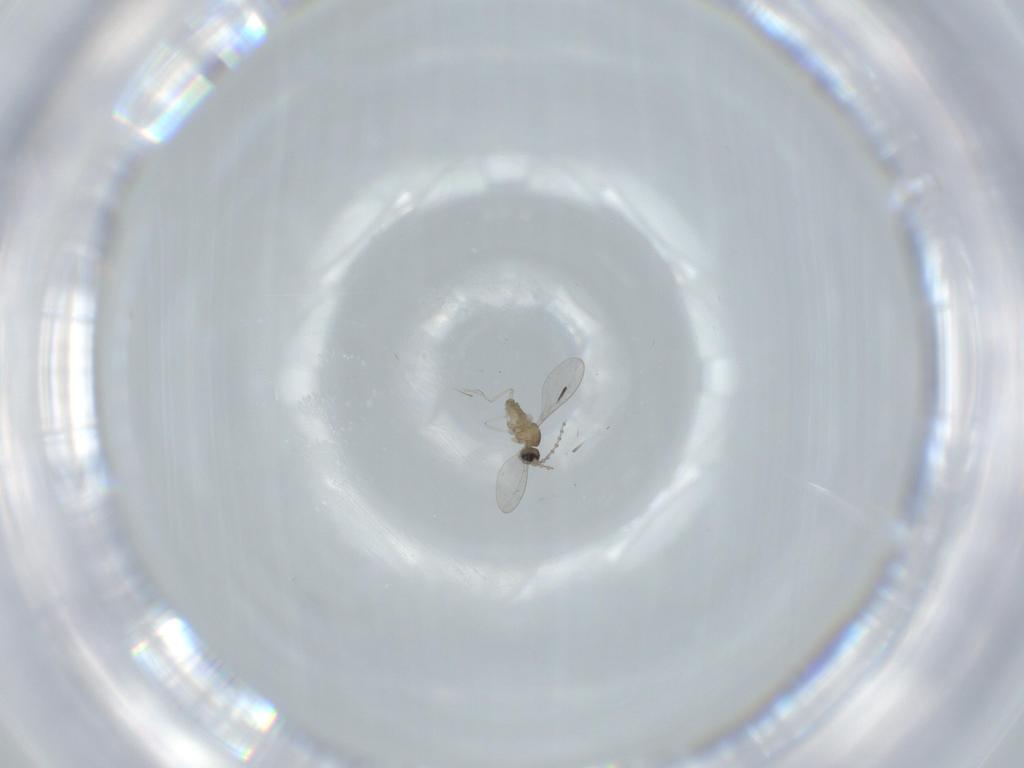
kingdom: Animalia
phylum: Arthropoda
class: Insecta
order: Diptera
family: Cecidomyiidae
